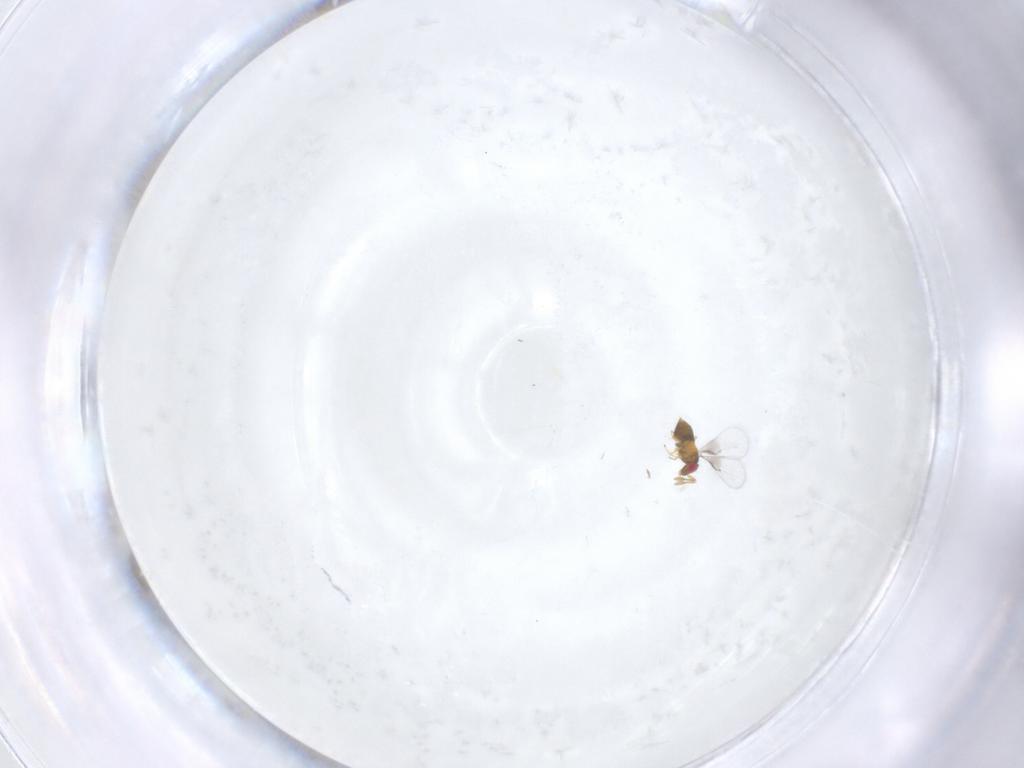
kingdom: Animalia
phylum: Arthropoda
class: Insecta
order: Hymenoptera
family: Trichogrammatidae
